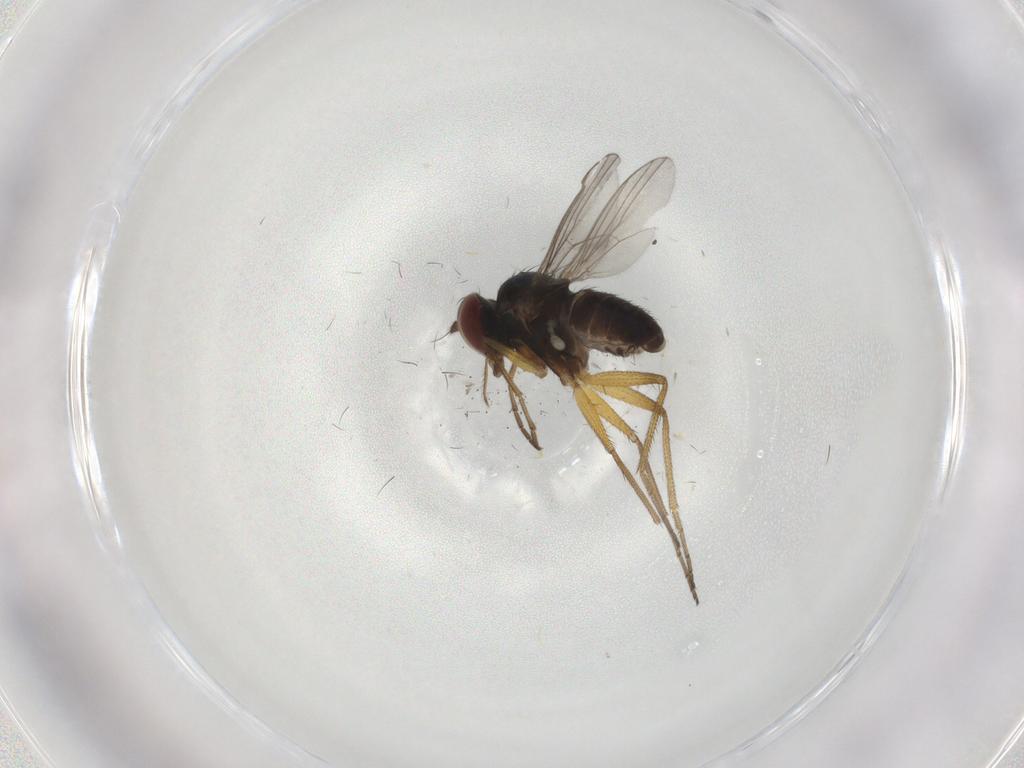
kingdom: Animalia
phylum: Arthropoda
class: Insecta
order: Diptera
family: Dolichopodidae
